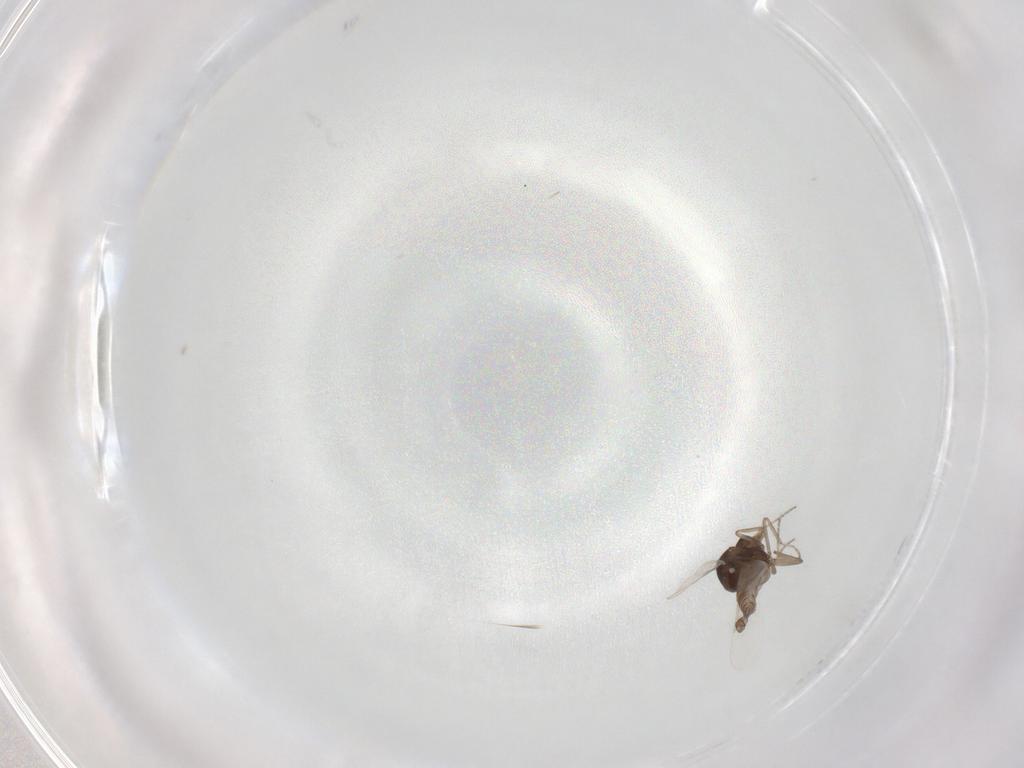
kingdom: Animalia
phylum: Arthropoda
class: Insecta
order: Diptera
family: Ceratopogonidae
